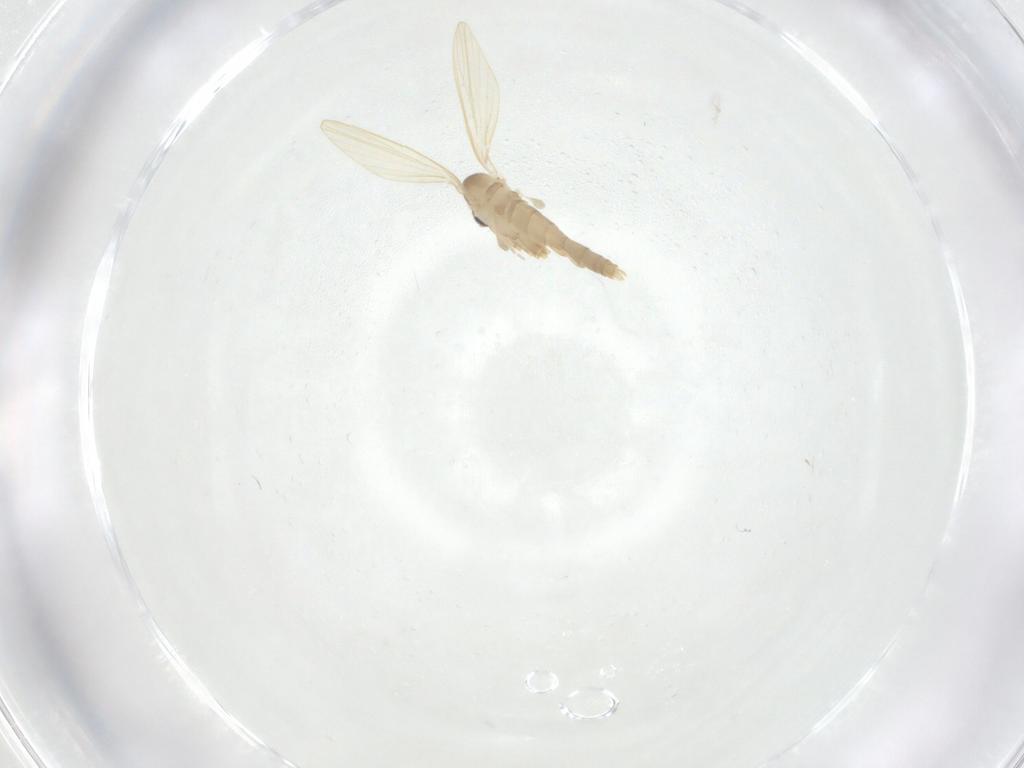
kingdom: Animalia
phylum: Arthropoda
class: Insecta
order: Diptera
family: Psychodidae
